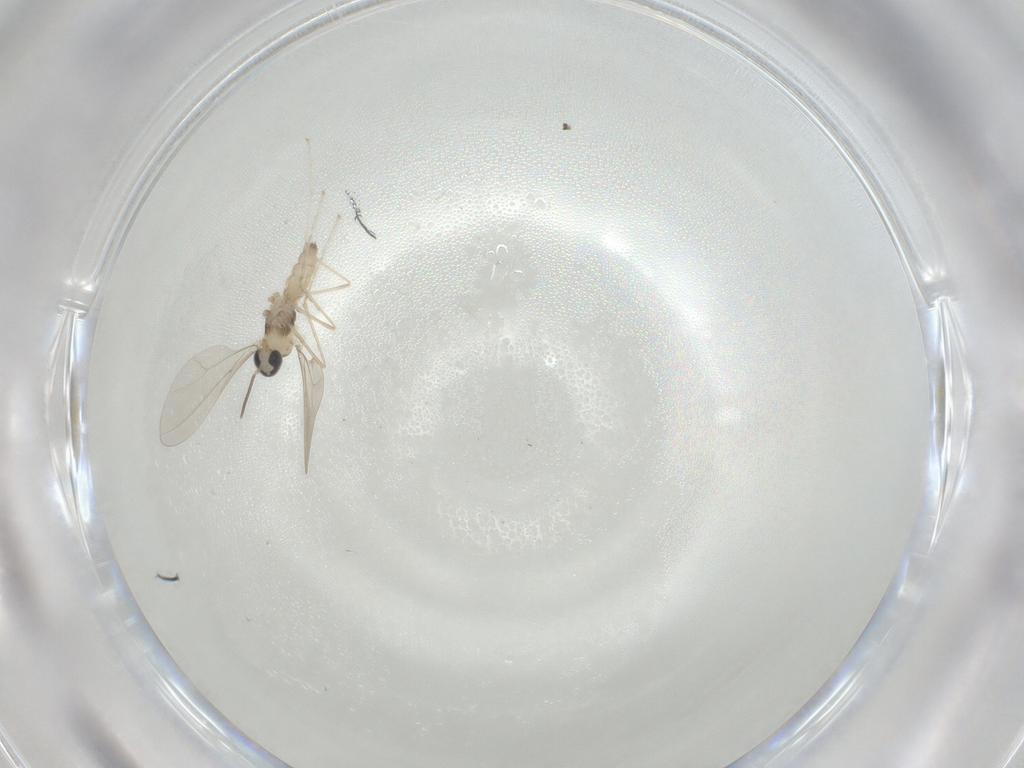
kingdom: Animalia
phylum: Arthropoda
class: Insecta
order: Diptera
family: Cecidomyiidae
